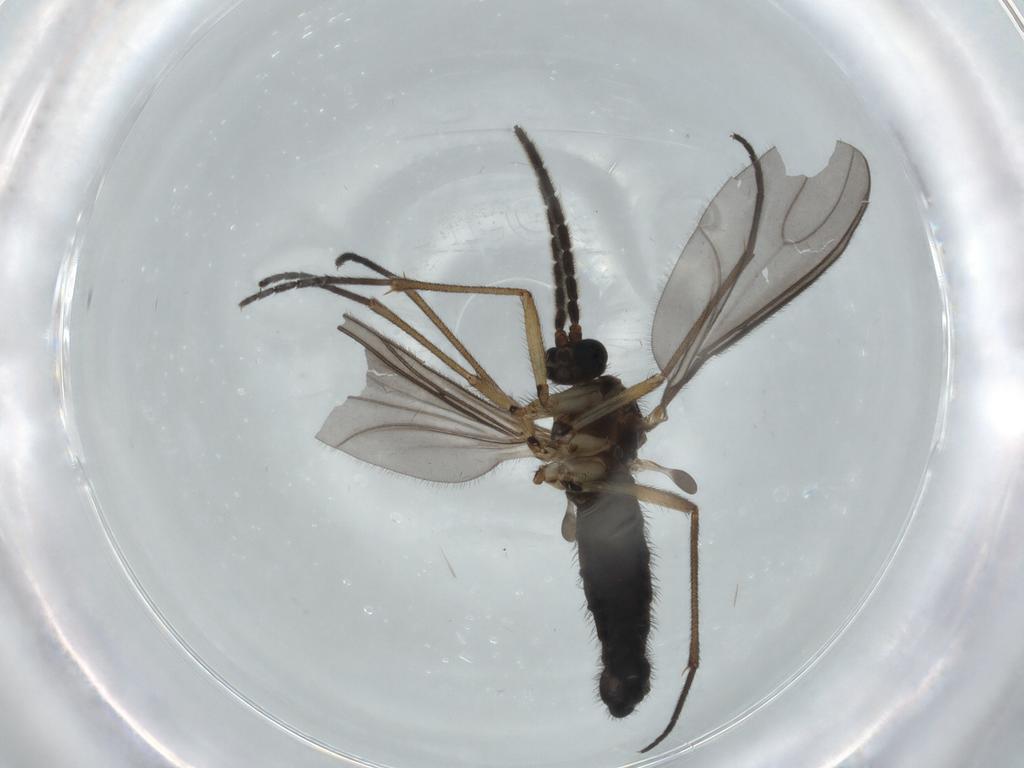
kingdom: Animalia
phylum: Arthropoda
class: Insecta
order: Diptera
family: Sciaridae
